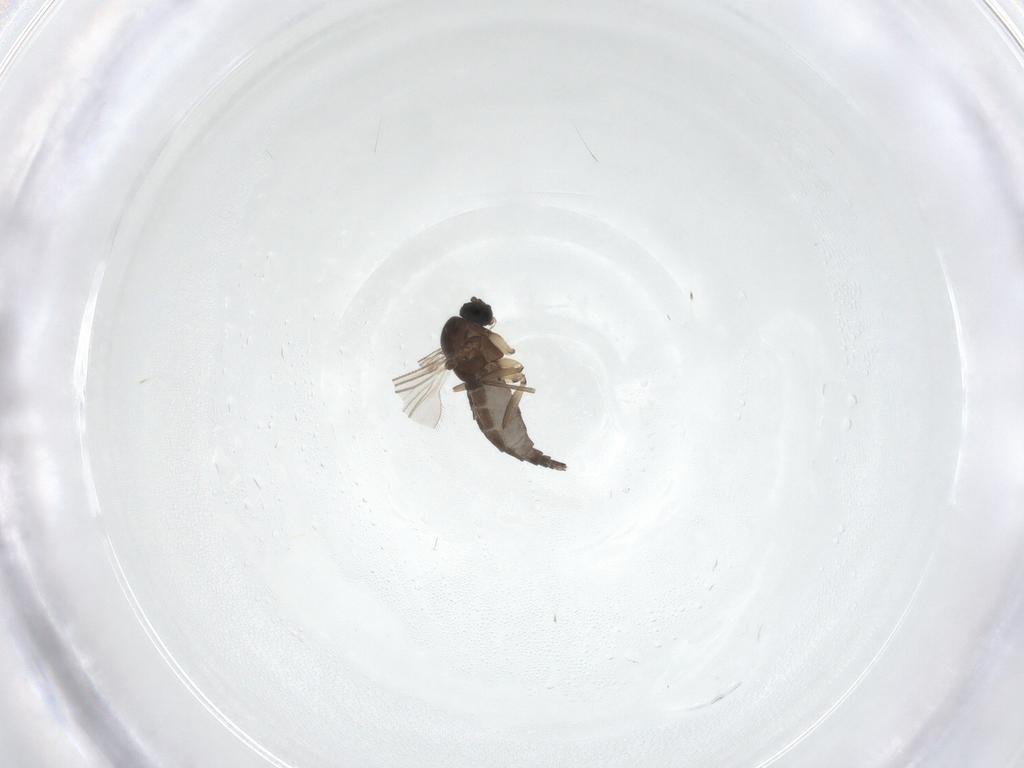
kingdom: Animalia
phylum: Arthropoda
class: Insecta
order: Diptera
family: Sciaridae
